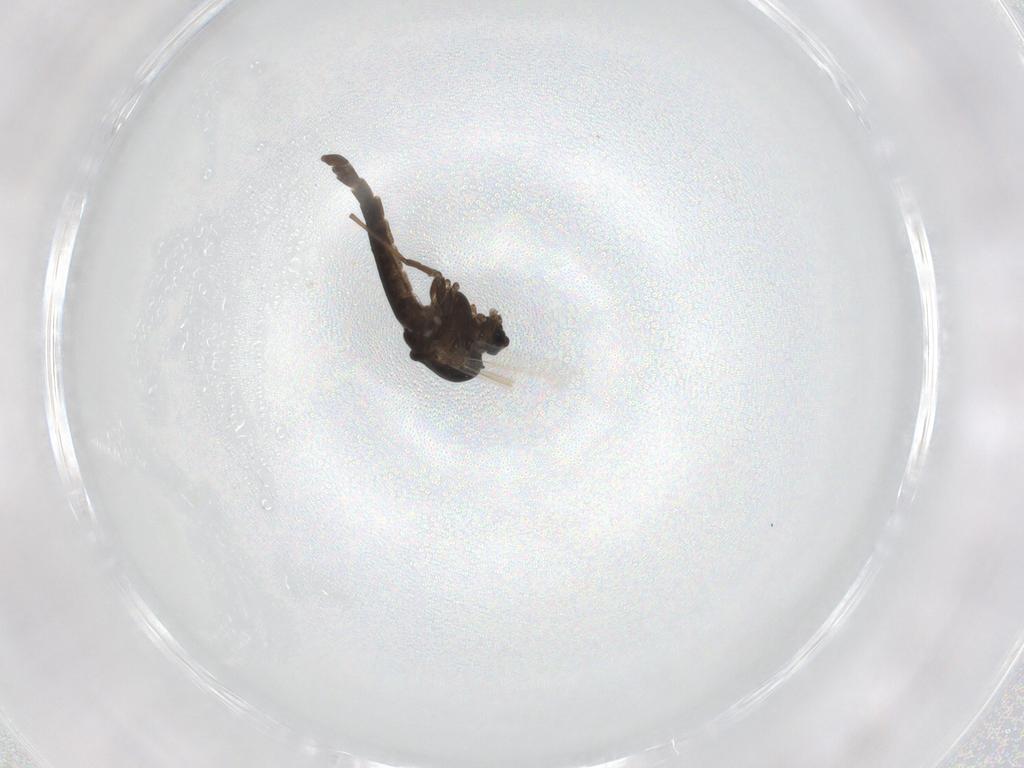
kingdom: Animalia
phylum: Arthropoda
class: Insecta
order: Diptera
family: Chironomidae
